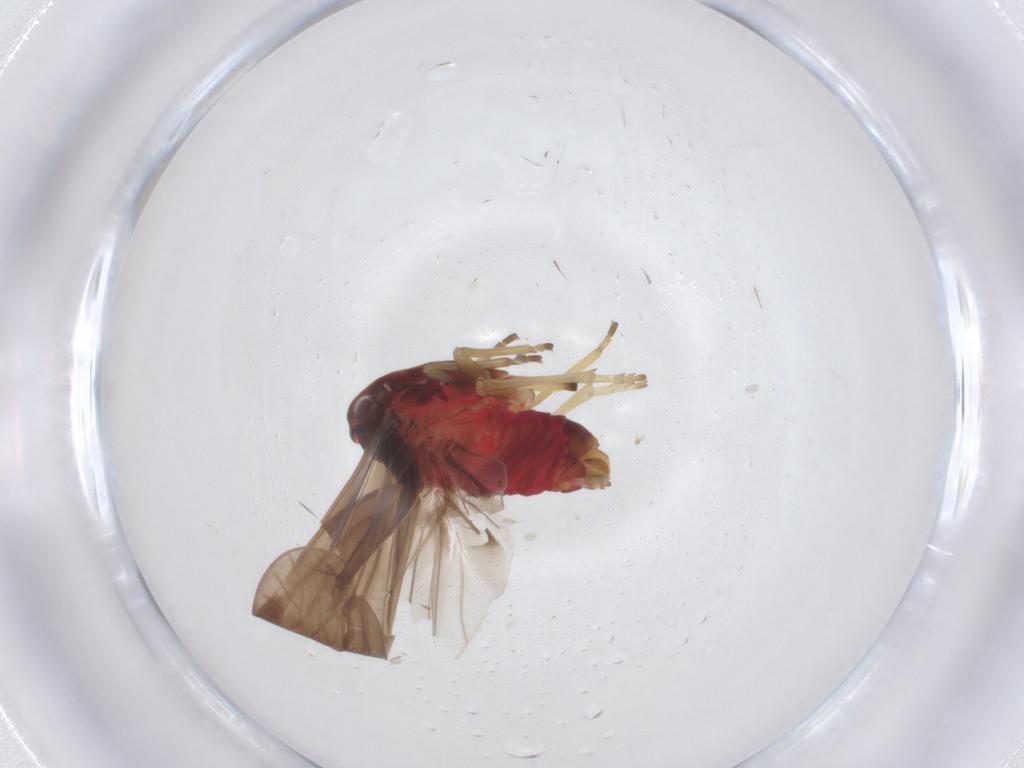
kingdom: Animalia
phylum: Arthropoda
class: Insecta
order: Hemiptera
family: Derbidae
